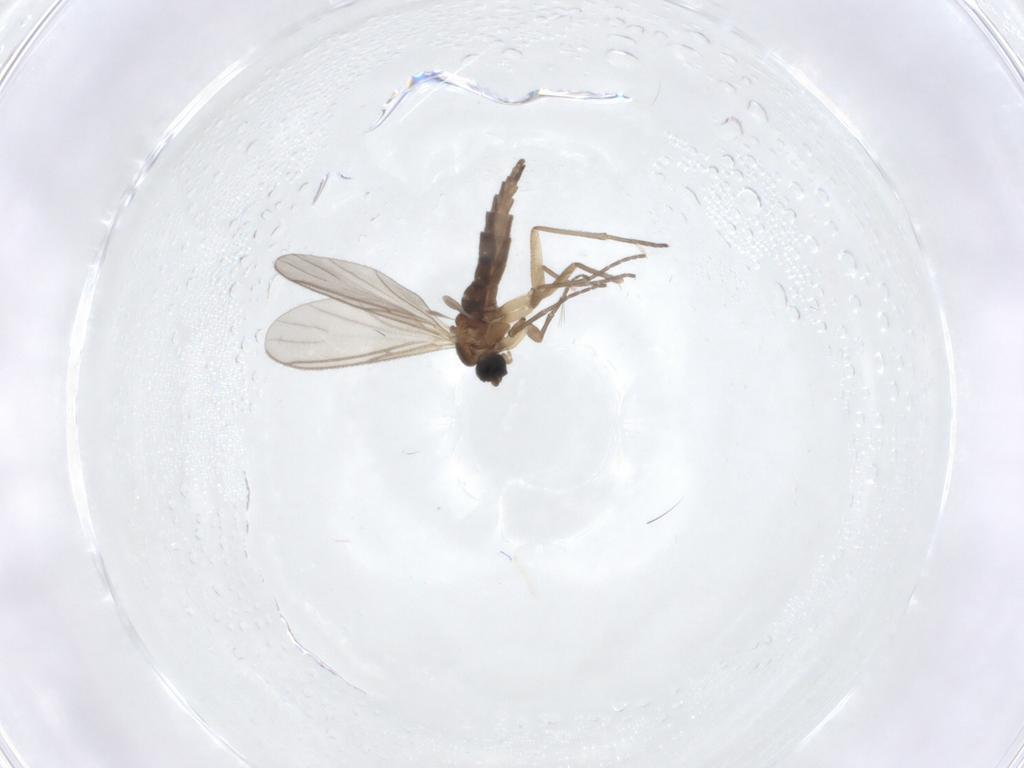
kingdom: Animalia
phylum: Arthropoda
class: Insecta
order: Diptera
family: Sciaridae
